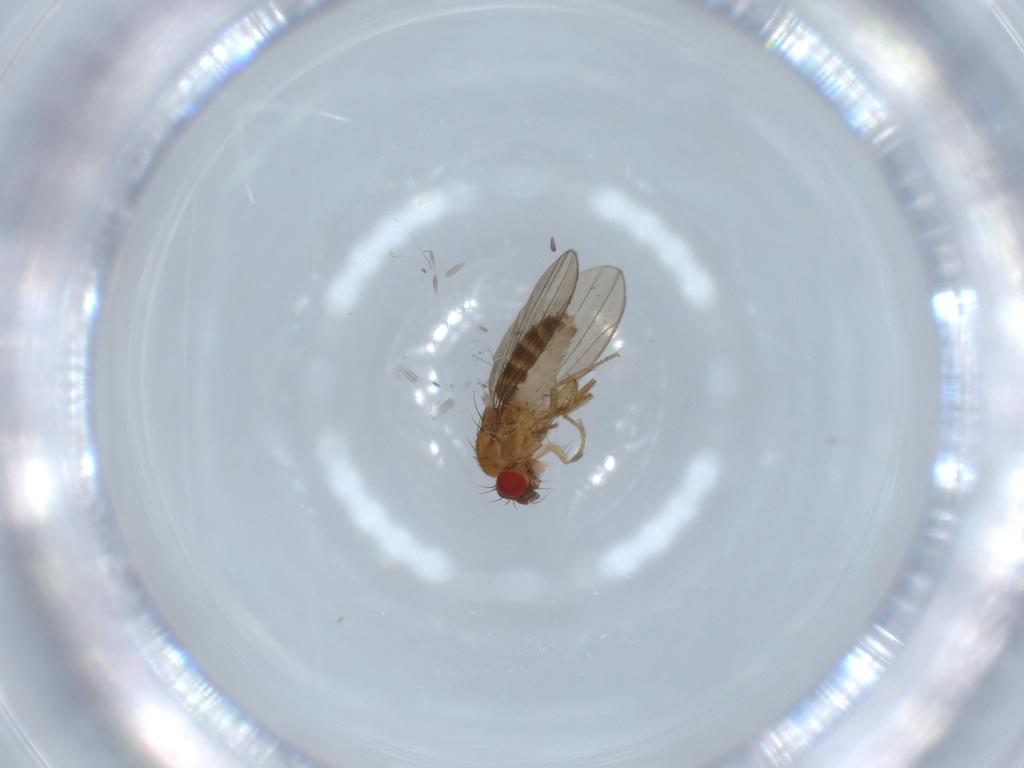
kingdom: Animalia
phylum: Arthropoda
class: Insecta
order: Diptera
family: Drosophilidae
